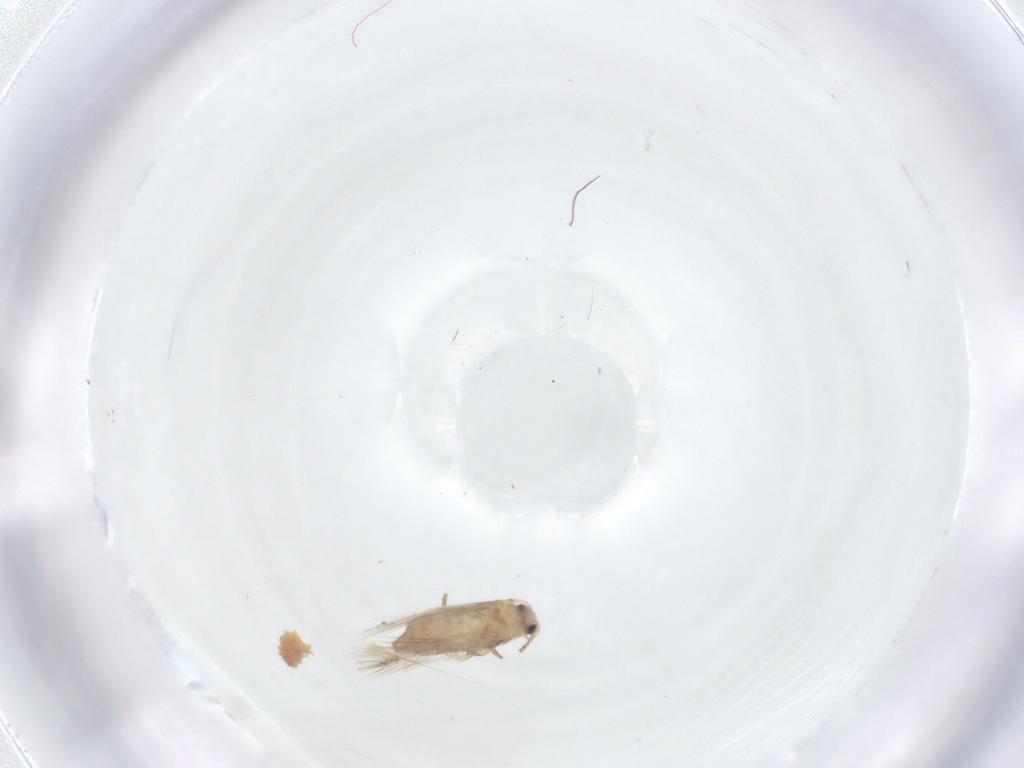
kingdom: Animalia
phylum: Arthropoda
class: Insecta
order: Lepidoptera
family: Nepticulidae
